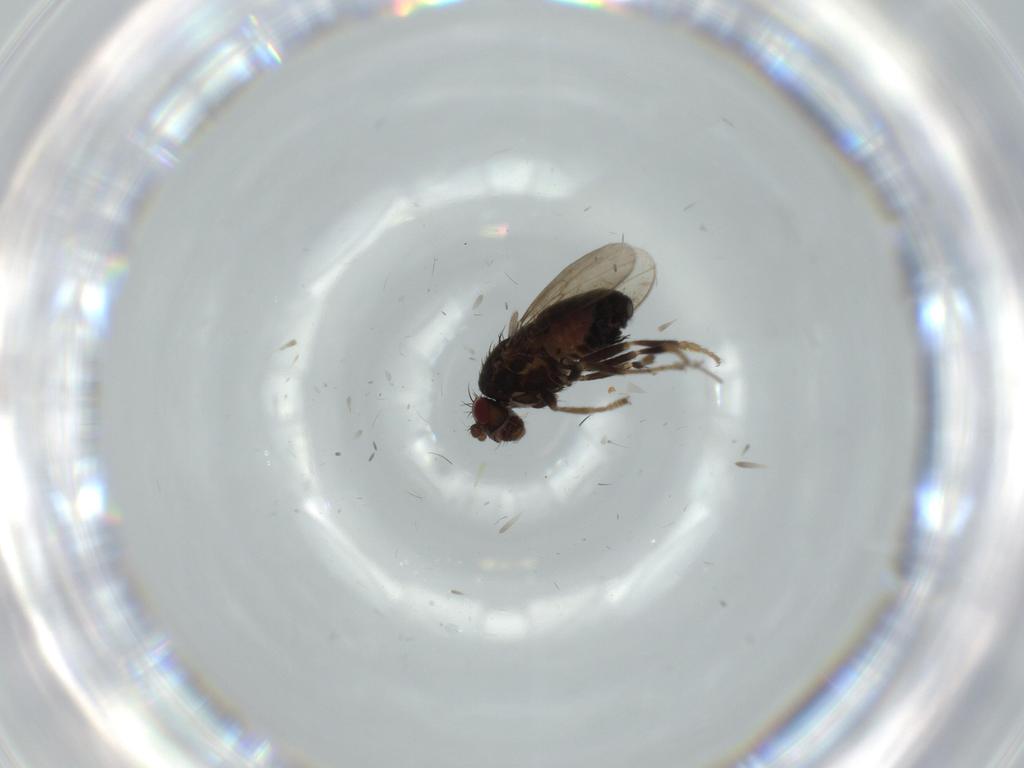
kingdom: Animalia
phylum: Arthropoda
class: Insecta
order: Diptera
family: Sphaeroceridae
